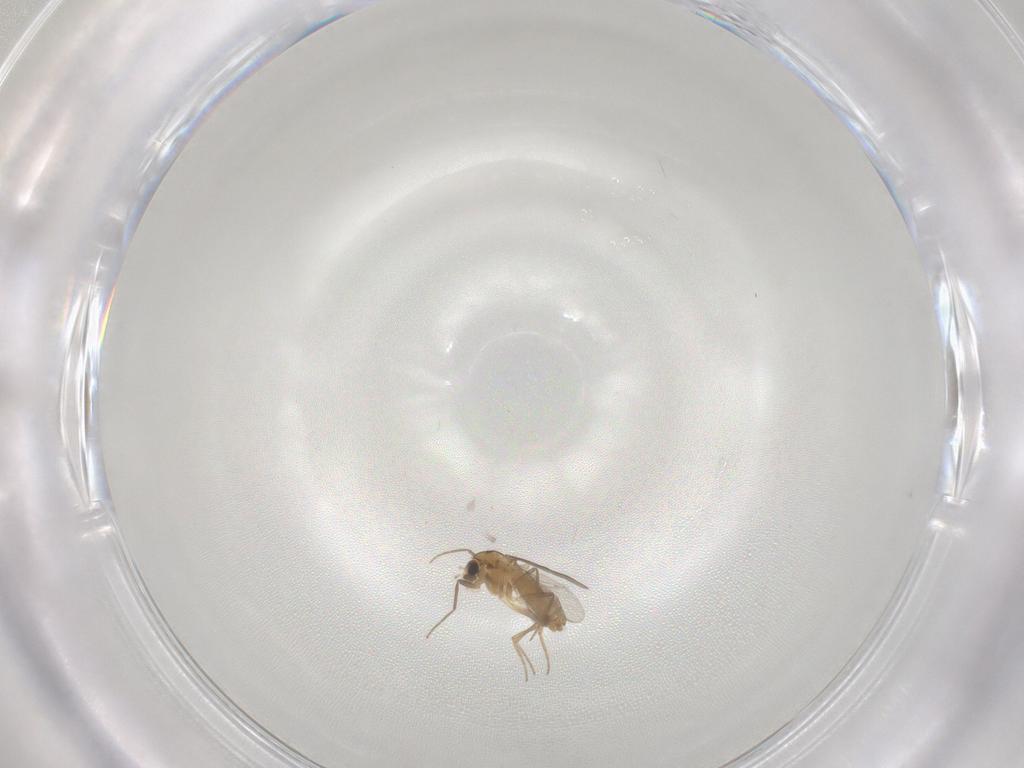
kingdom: Animalia
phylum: Arthropoda
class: Insecta
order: Diptera
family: Chironomidae
